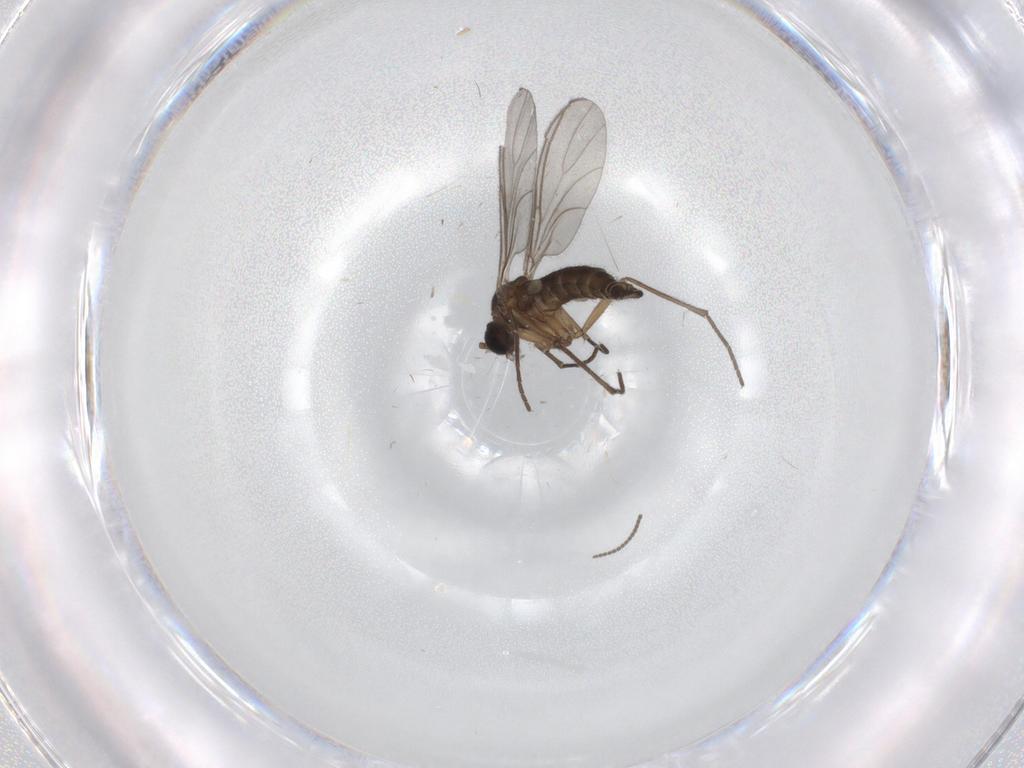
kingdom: Animalia
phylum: Arthropoda
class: Insecta
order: Diptera
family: Sciaridae
